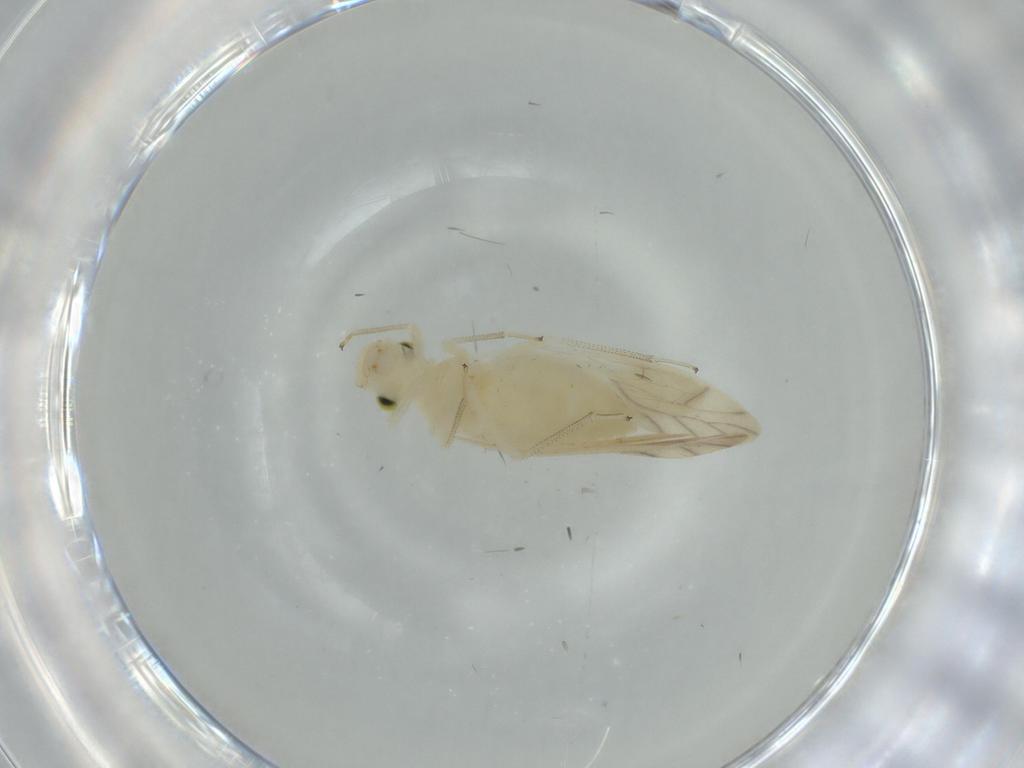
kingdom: Animalia
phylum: Arthropoda
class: Insecta
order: Psocodea
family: Caeciliusidae
